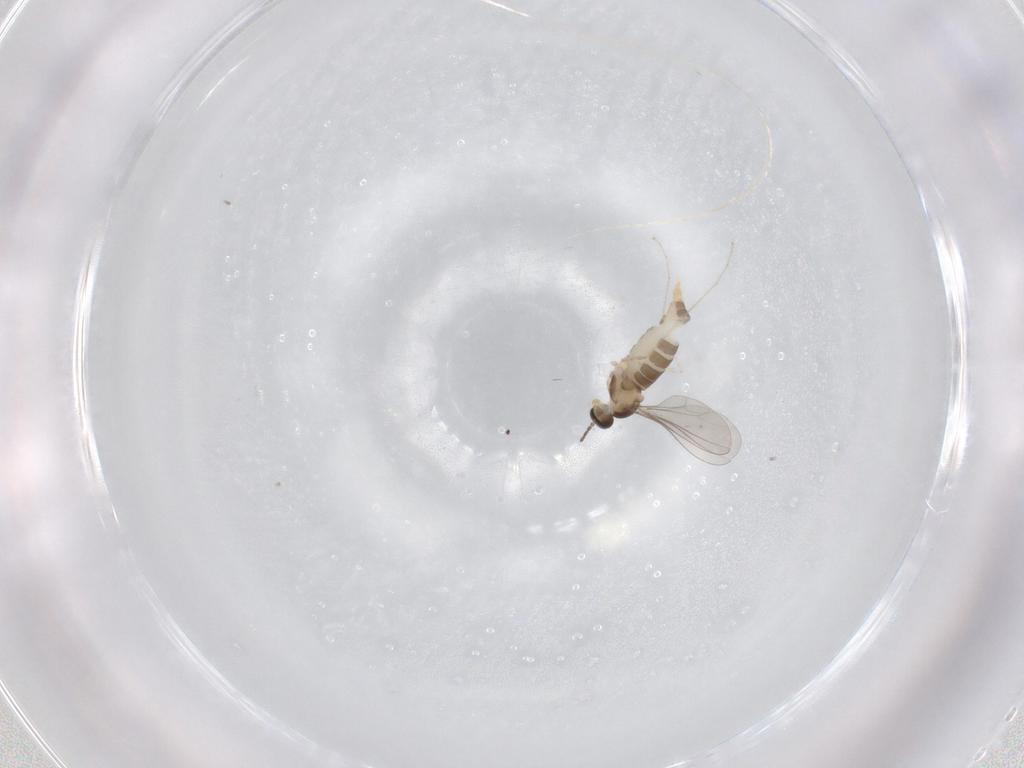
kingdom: Animalia
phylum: Arthropoda
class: Insecta
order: Diptera
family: Cecidomyiidae
